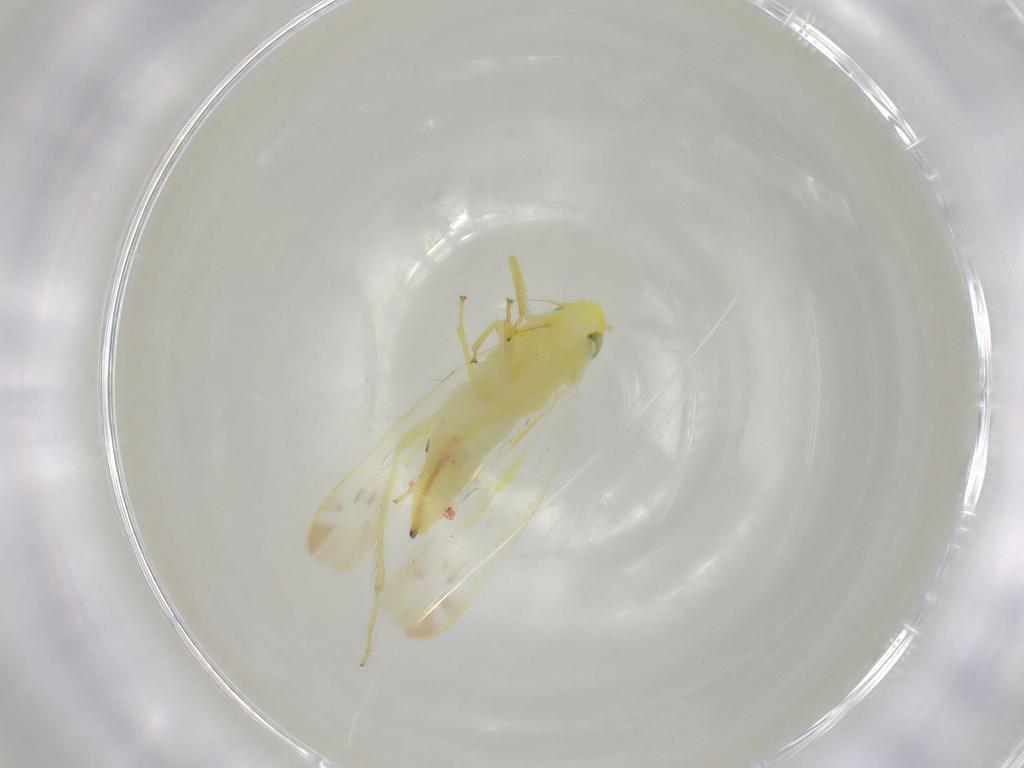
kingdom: Animalia
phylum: Arthropoda
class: Insecta
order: Hemiptera
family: Cicadellidae
